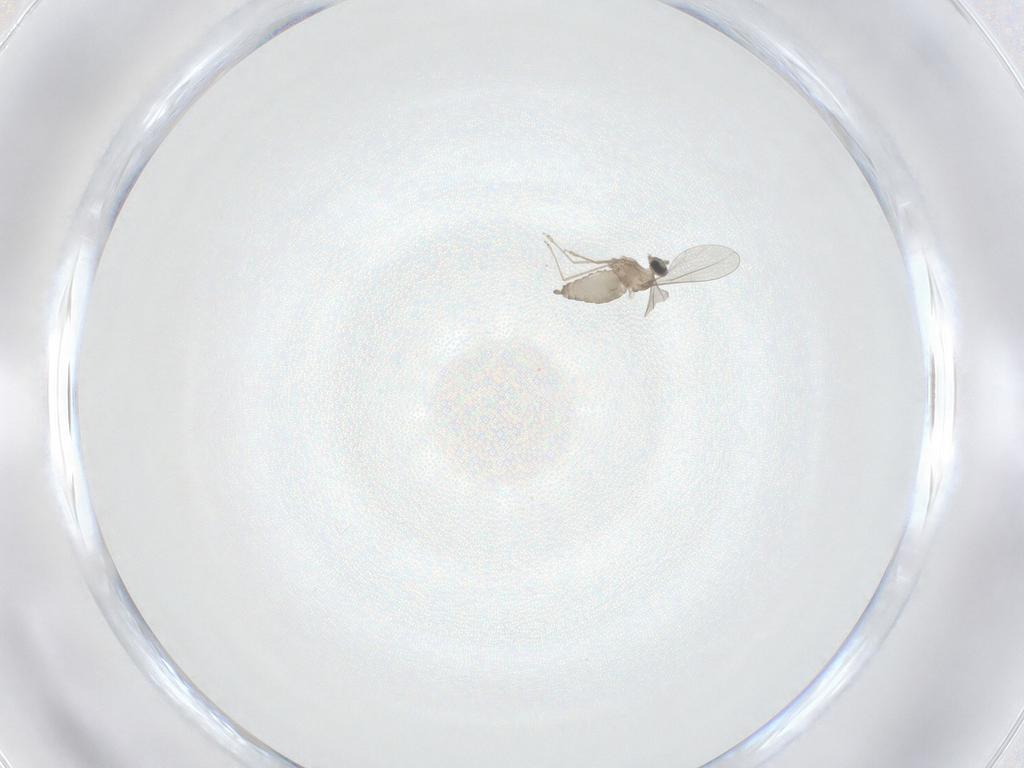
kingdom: Animalia
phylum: Arthropoda
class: Insecta
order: Diptera
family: Cecidomyiidae
